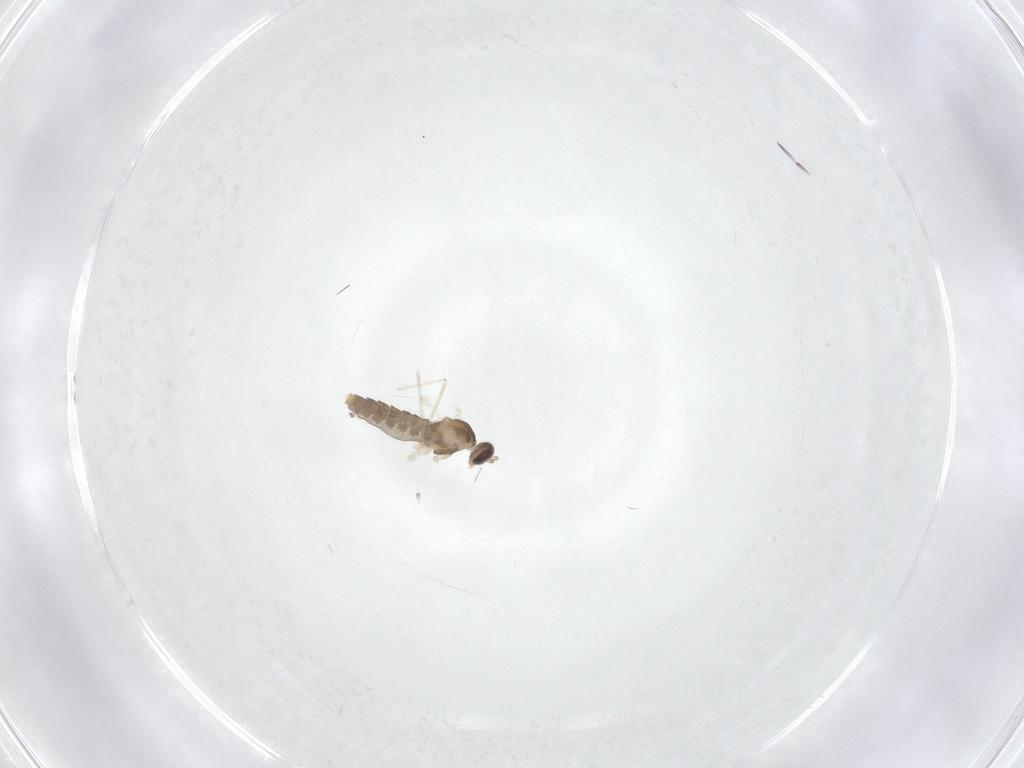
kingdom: Animalia
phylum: Arthropoda
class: Insecta
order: Diptera
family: Cecidomyiidae
